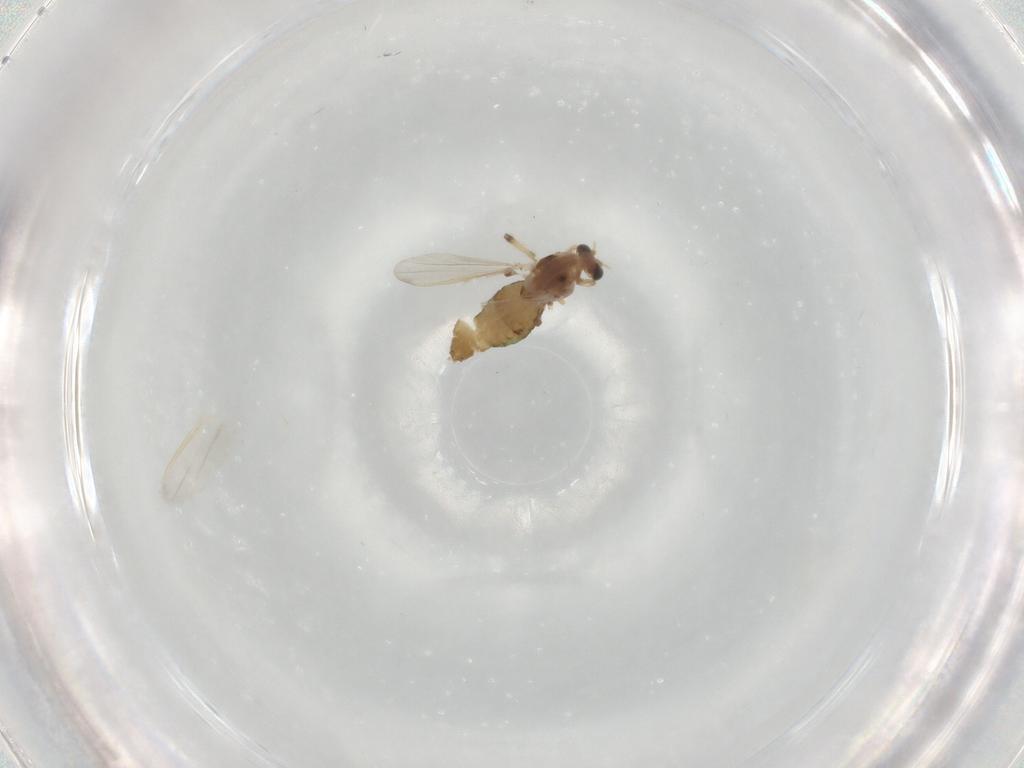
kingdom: Animalia
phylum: Arthropoda
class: Insecta
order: Diptera
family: Chironomidae
